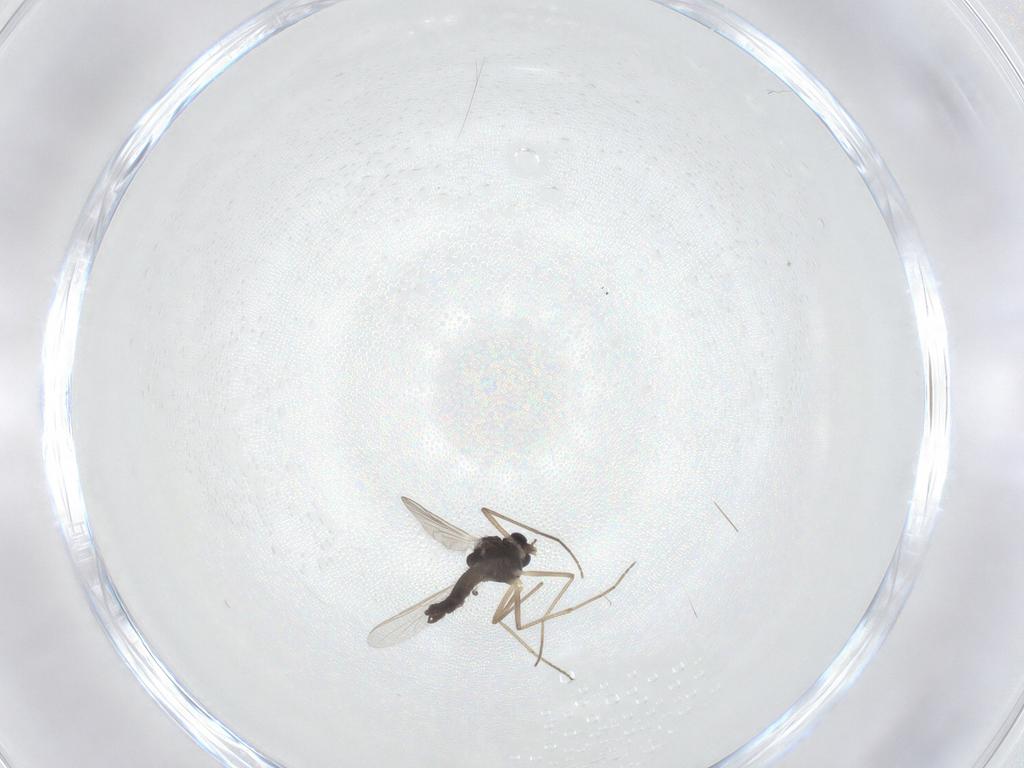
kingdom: Animalia
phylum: Arthropoda
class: Insecta
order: Diptera
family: Chironomidae
